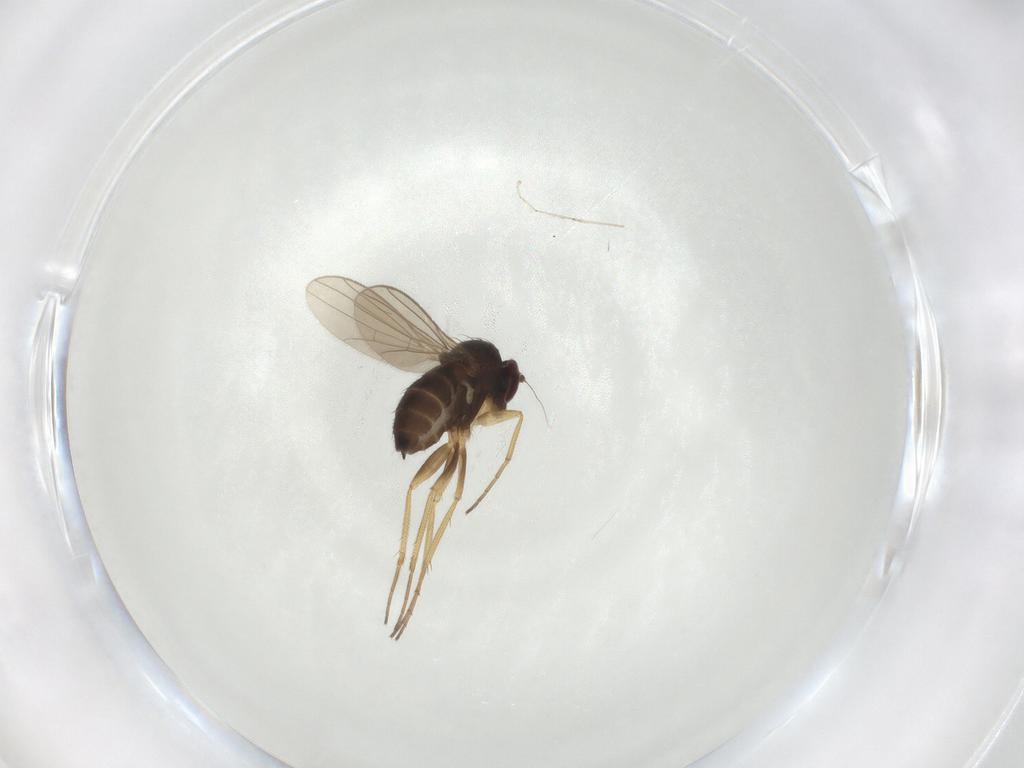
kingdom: Animalia
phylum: Arthropoda
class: Insecta
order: Diptera
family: Dolichopodidae
